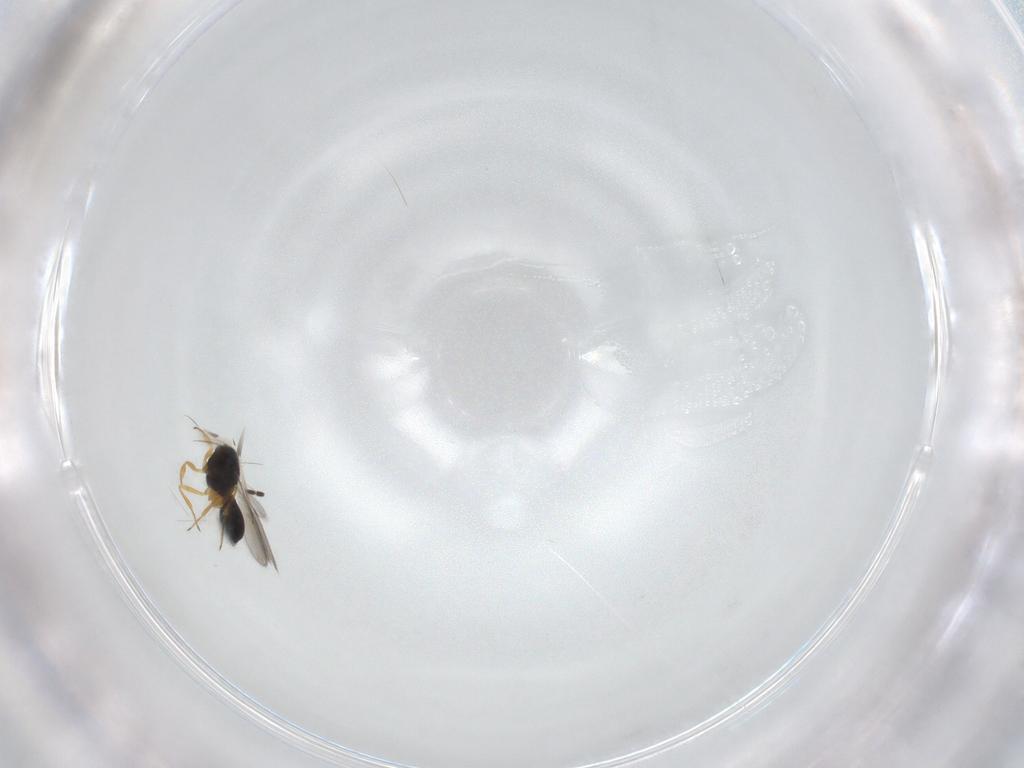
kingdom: Animalia
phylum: Arthropoda
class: Insecta
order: Hymenoptera
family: Scelionidae
